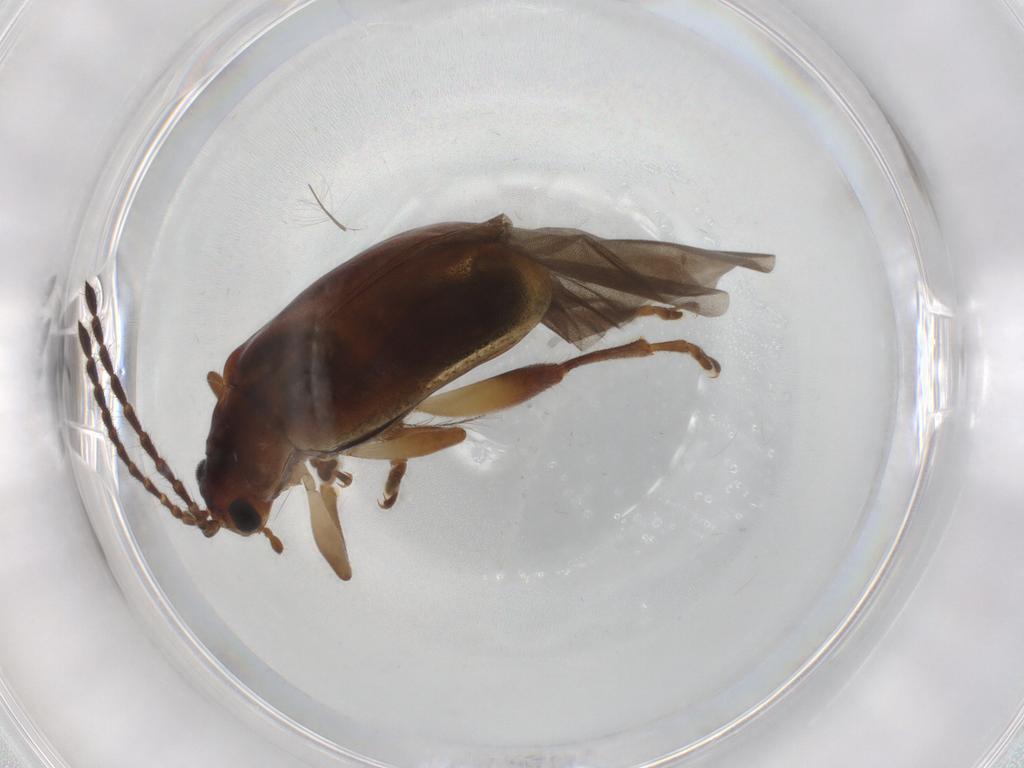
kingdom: Animalia
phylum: Arthropoda
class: Insecta
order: Coleoptera
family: Chrysomelidae
